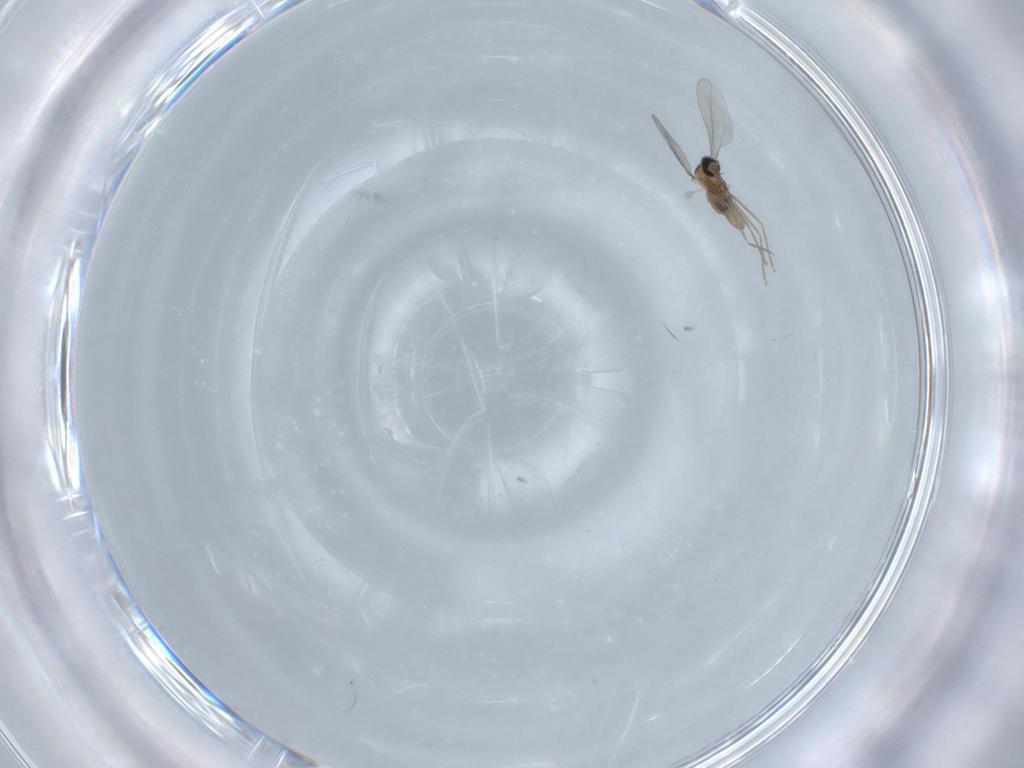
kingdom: Animalia
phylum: Arthropoda
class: Insecta
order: Diptera
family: Cecidomyiidae
